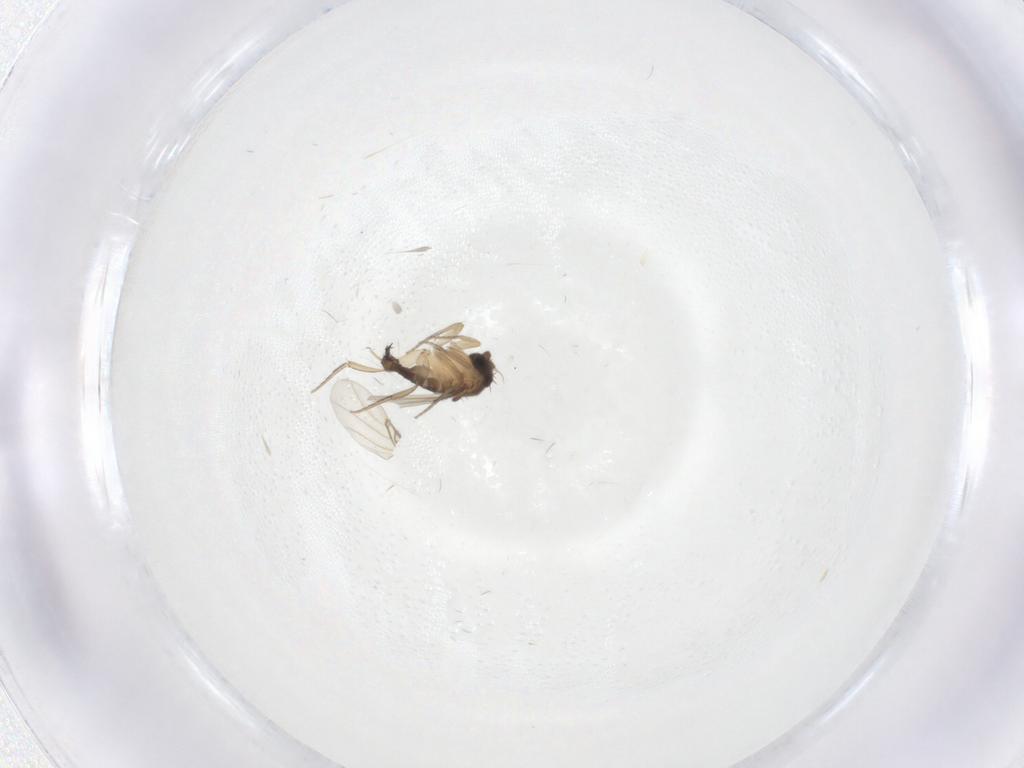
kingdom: Animalia
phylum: Arthropoda
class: Insecta
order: Diptera
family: Phoridae
